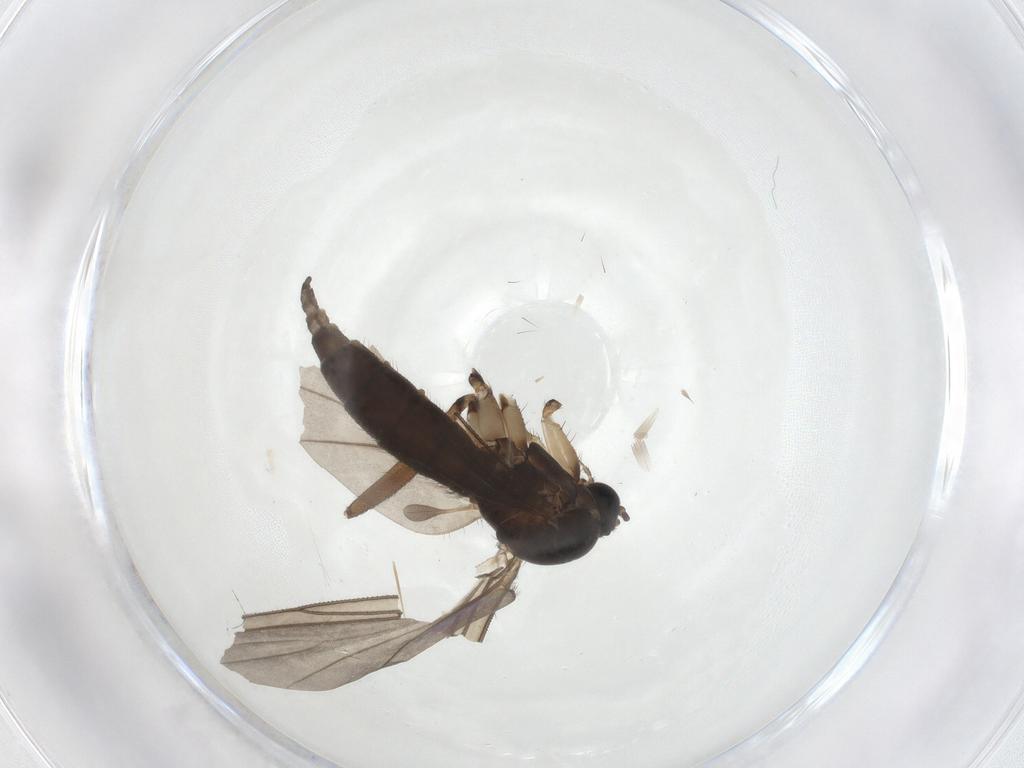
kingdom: Animalia
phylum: Arthropoda
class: Insecta
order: Diptera
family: Sciaridae
